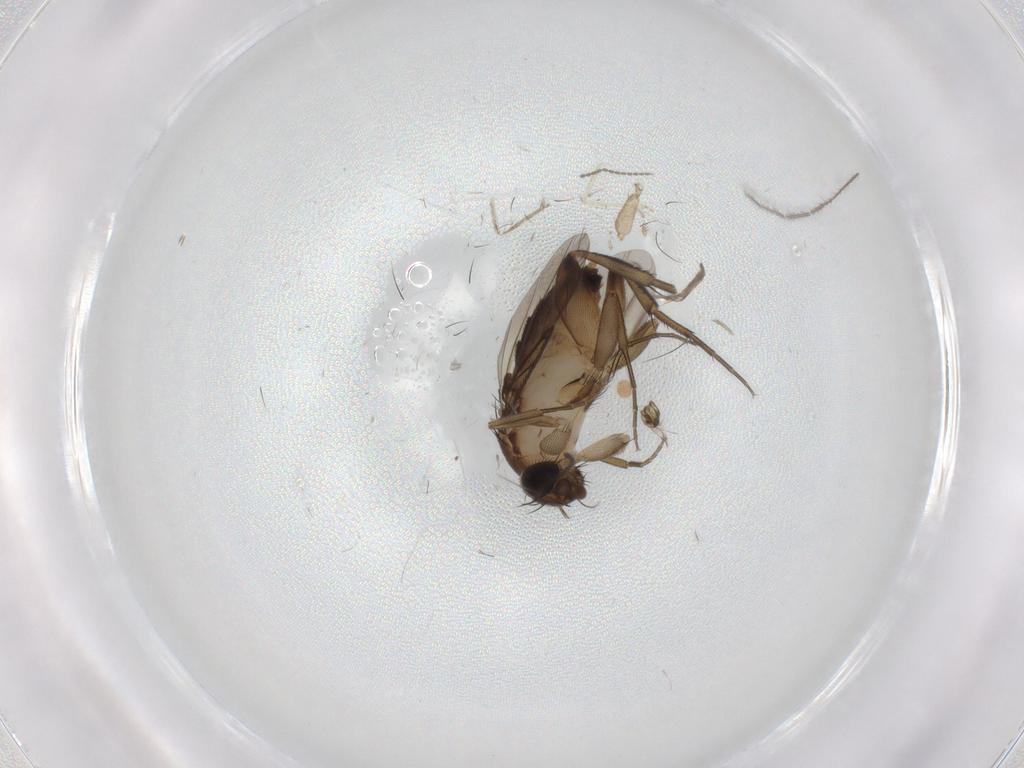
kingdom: Animalia
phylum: Arthropoda
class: Insecta
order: Diptera
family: Phoridae
